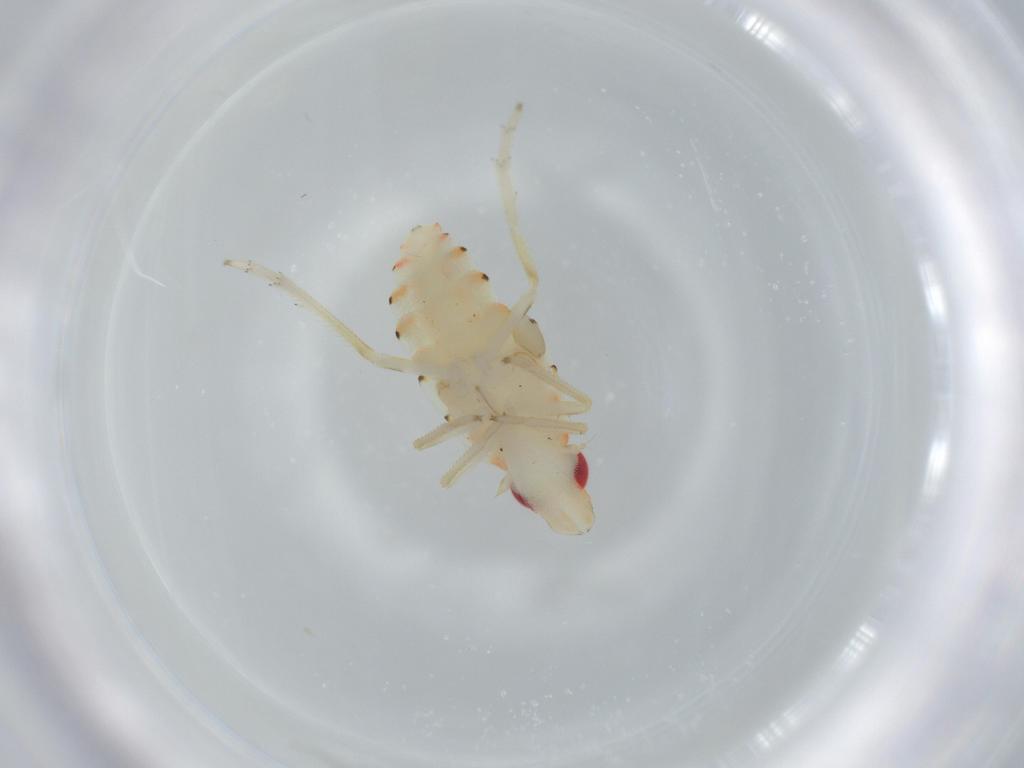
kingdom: Animalia
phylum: Arthropoda
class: Insecta
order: Hemiptera
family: Tropiduchidae
